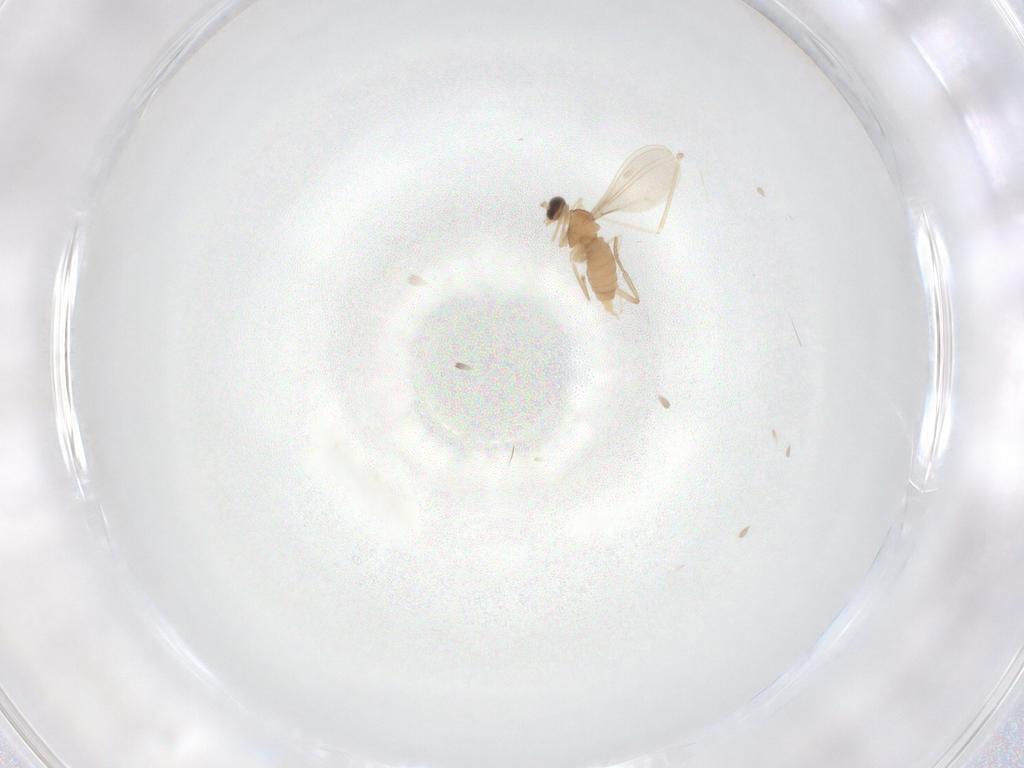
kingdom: Animalia
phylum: Arthropoda
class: Insecta
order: Diptera
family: Cecidomyiidae
